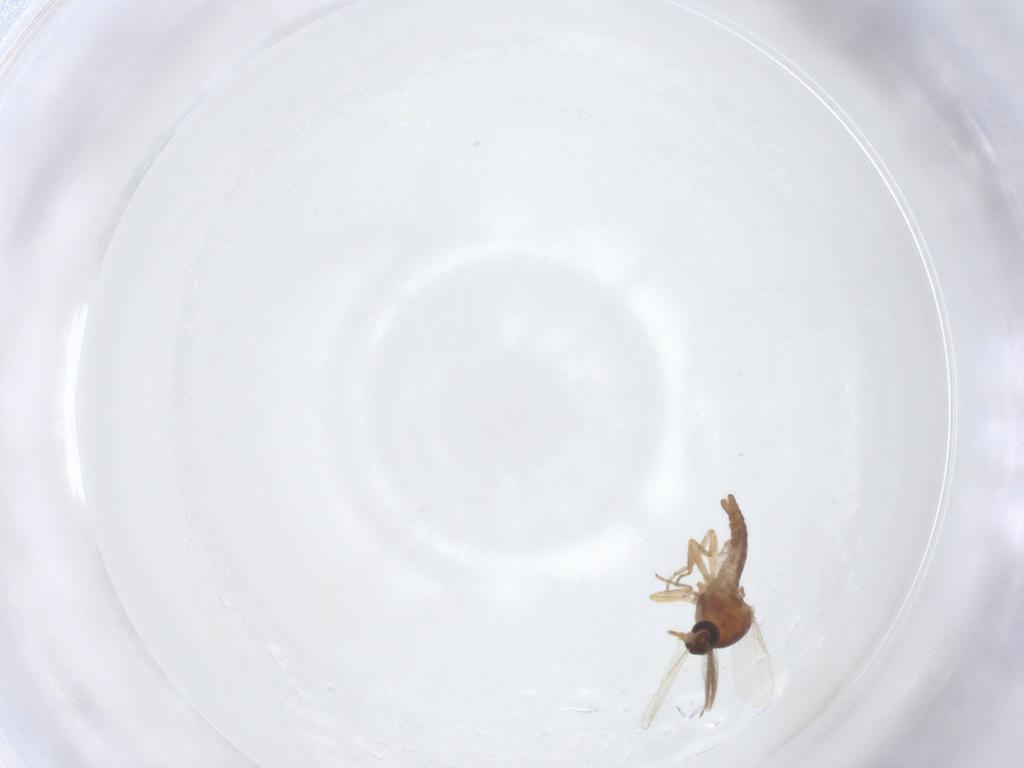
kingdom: Animalia
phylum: Arthropoda
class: Insecta
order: Diptera
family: Ceratopogonidae
